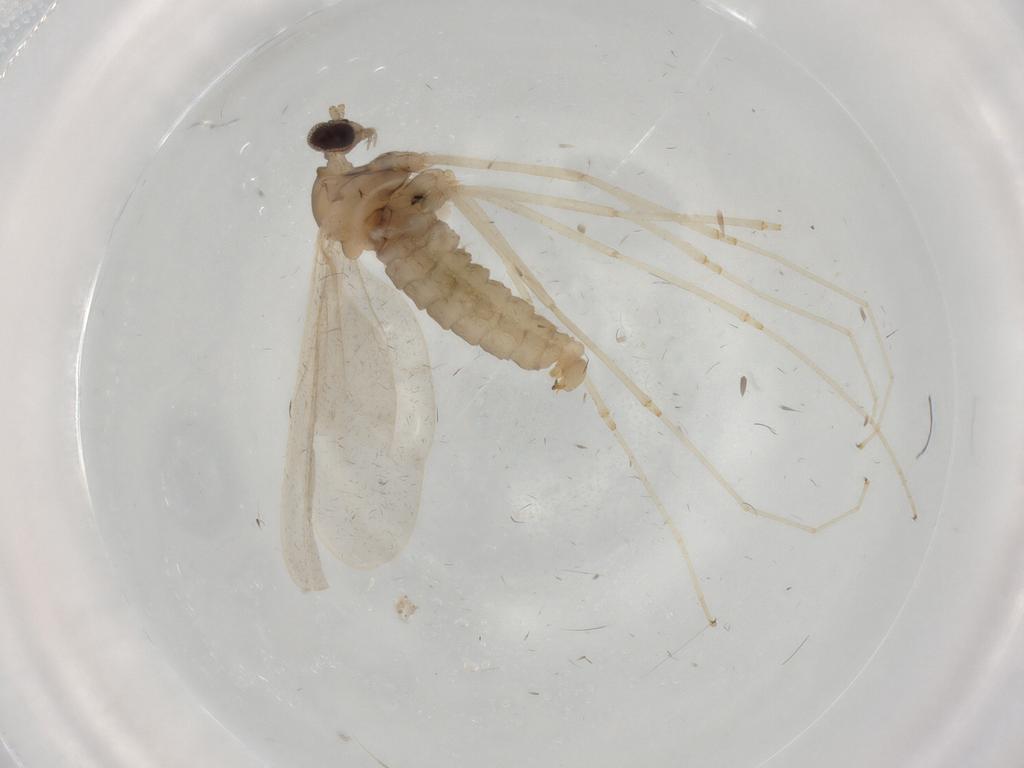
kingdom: Animalia
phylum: Arthropoda
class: Insecta
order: Diptera
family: Cecidomyiidae
